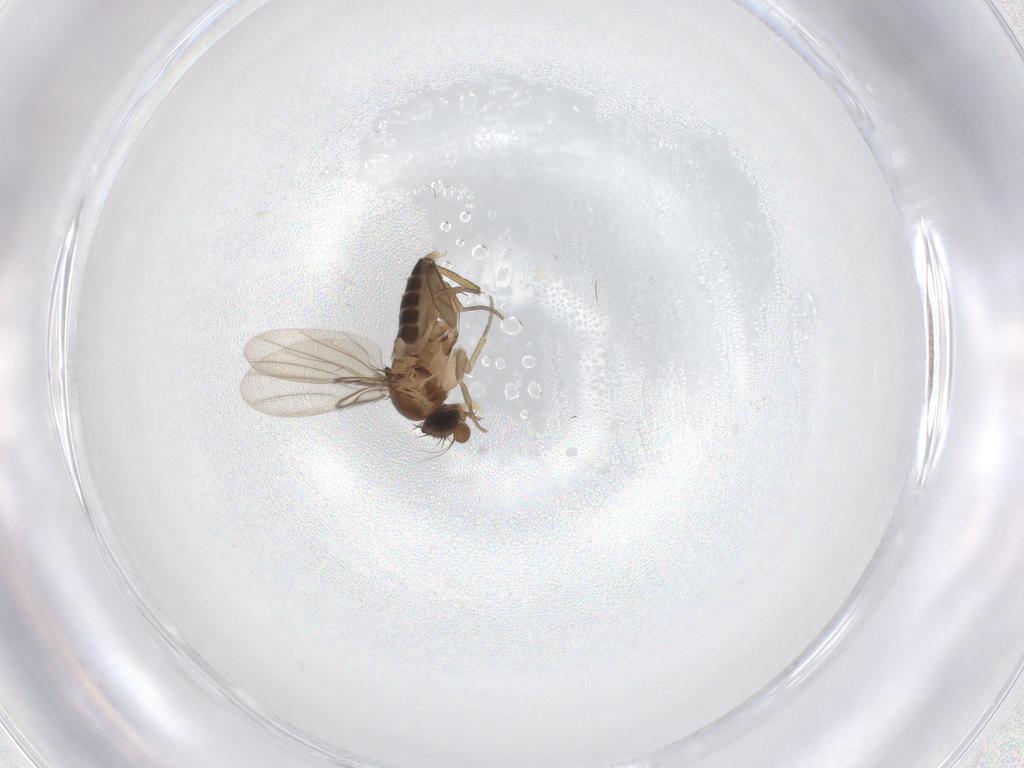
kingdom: Animalia
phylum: Arthropoda
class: Insecta
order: Diptera
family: Phoridae
